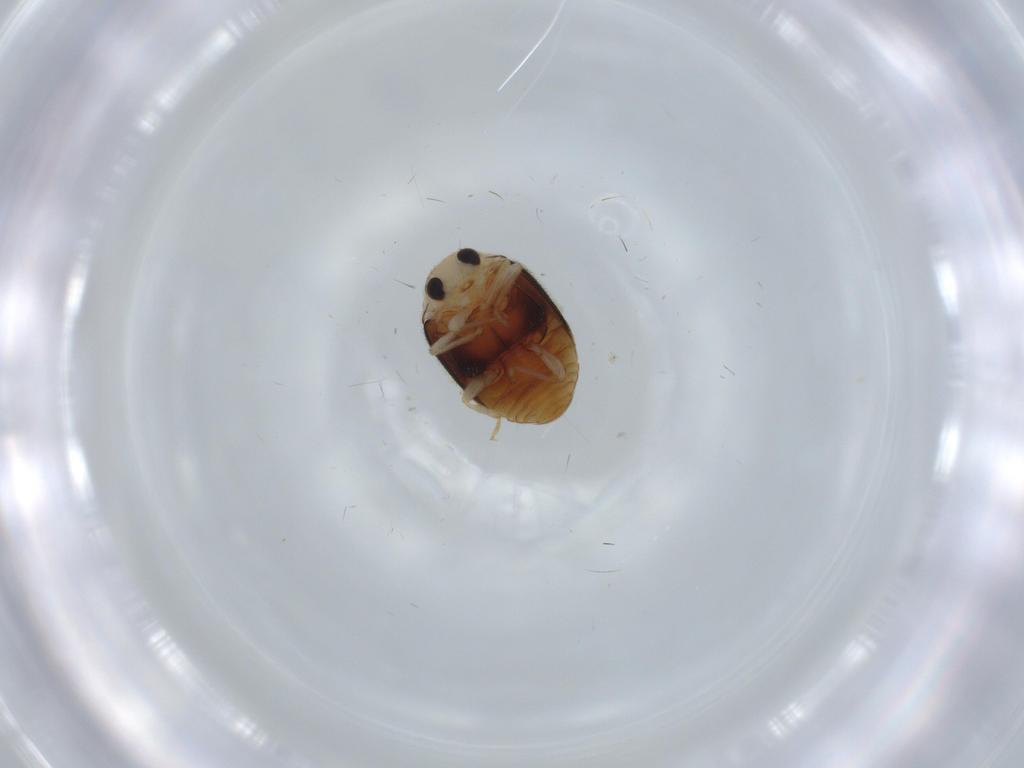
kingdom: Animalia
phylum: Arthropoda
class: Insecta
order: Coleoptera
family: Coccinellidae
